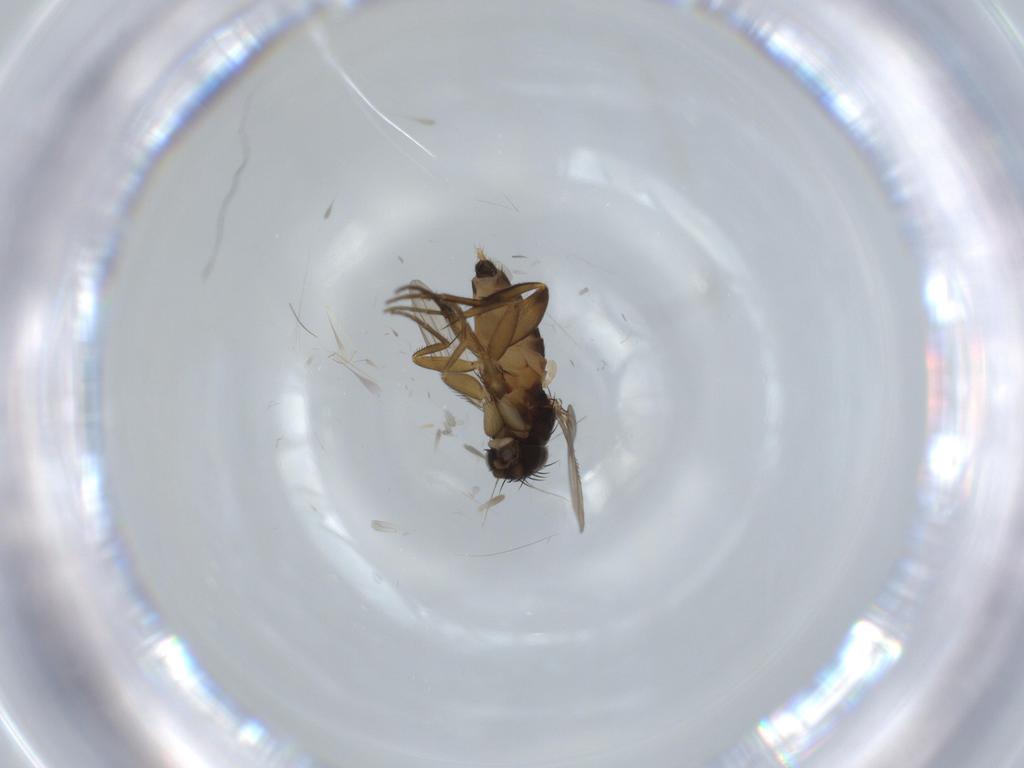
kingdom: Animalia
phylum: Arthropoda
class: Insecta
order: Diptera
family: Phoridae
